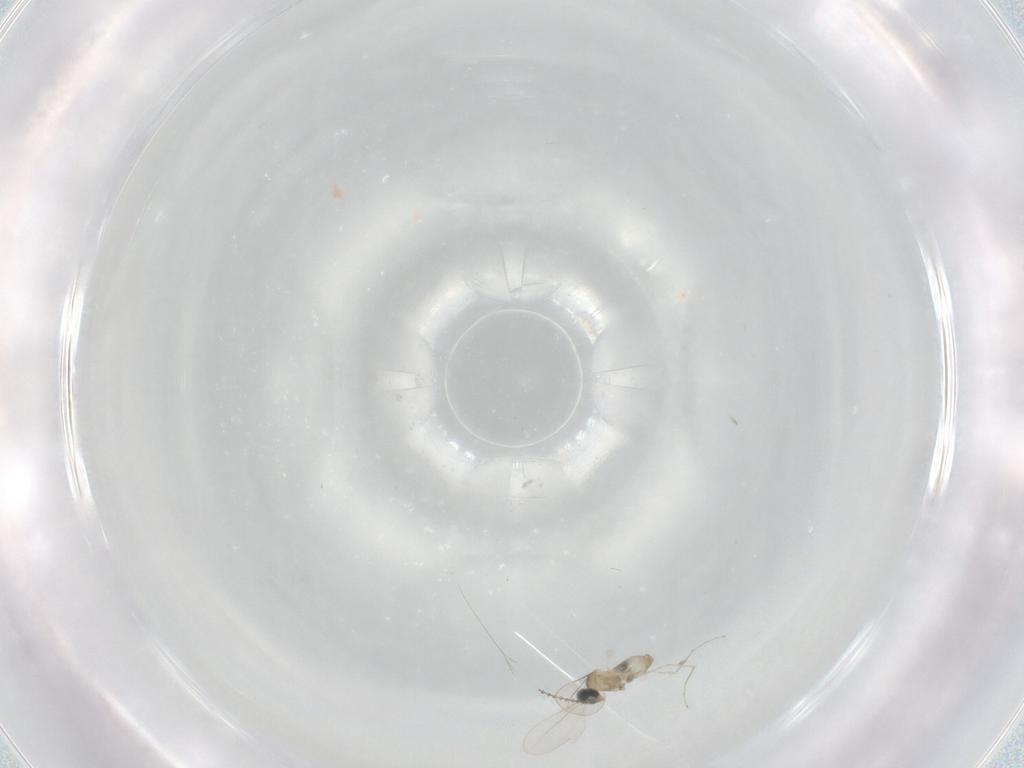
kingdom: Animalia
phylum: Arthropoda
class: Insecta
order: Diptera
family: Cecidomyiidae
